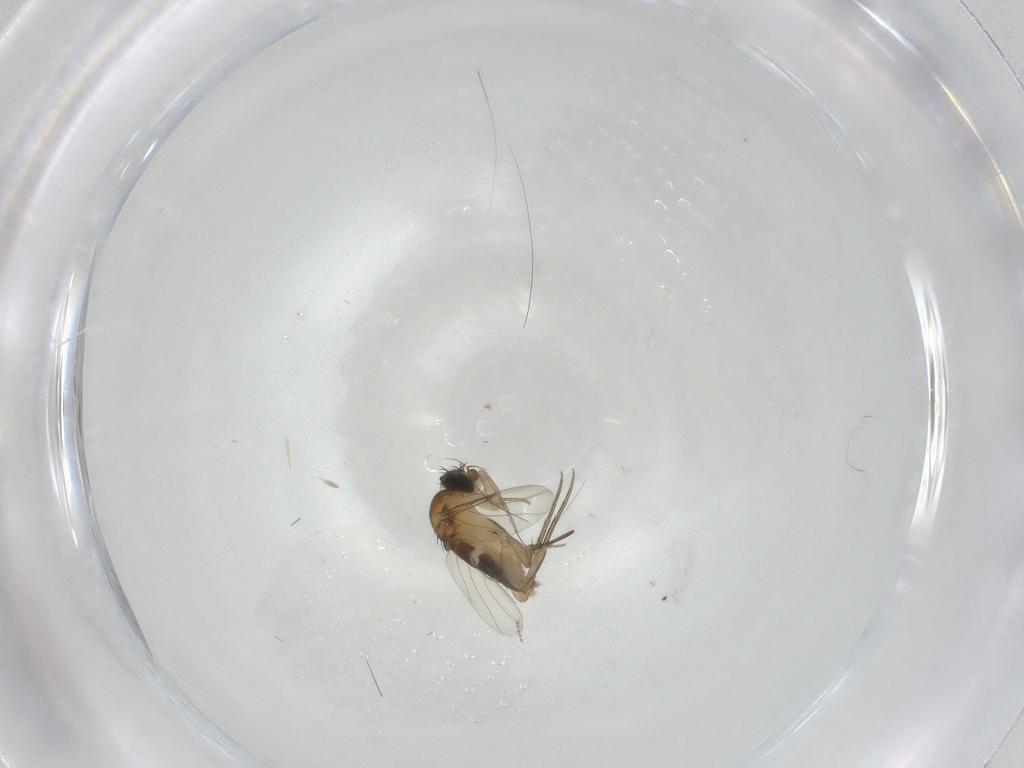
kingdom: Animalia
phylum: Arthropoda
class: Insecta
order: Diptera
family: Phoridae
